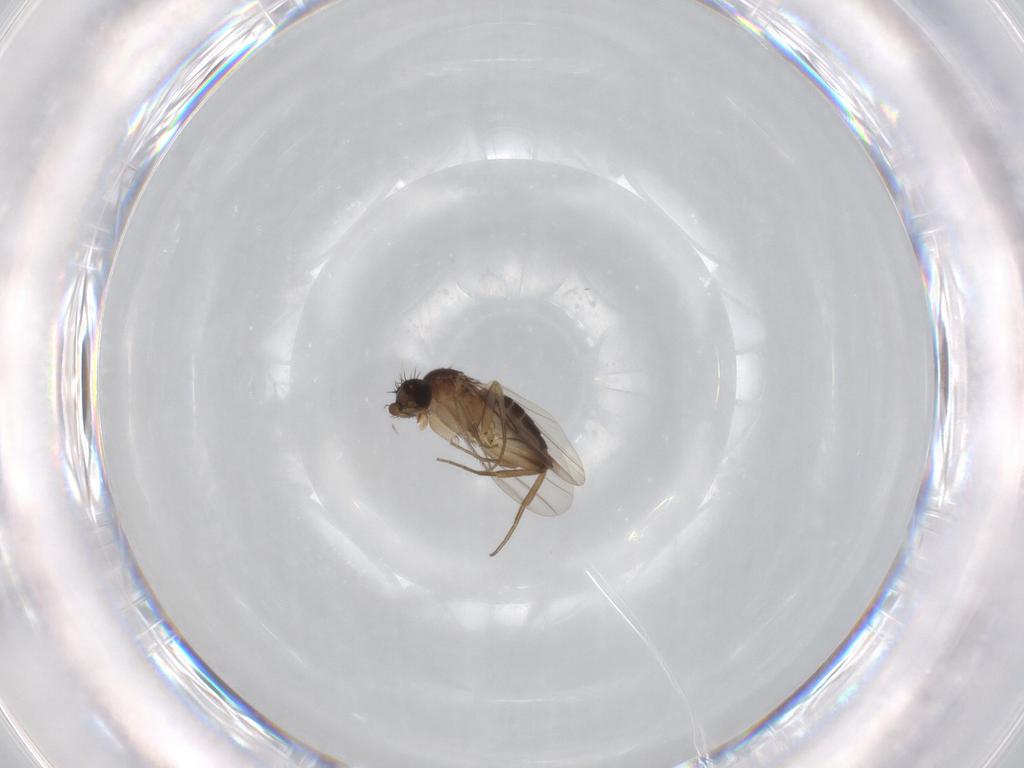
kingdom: Animalia
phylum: Arthropoda
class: Insecta
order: Diptera
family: Phoridae
